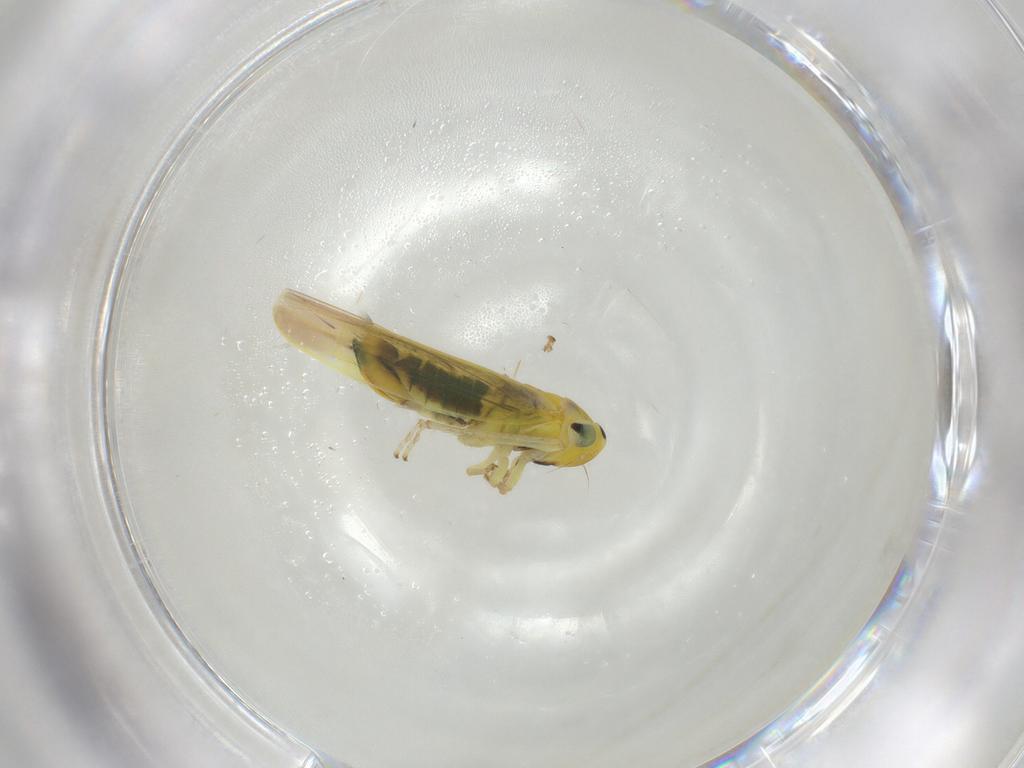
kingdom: Animalia
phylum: Arthropoda
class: Insecta
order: Hemiptera
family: Cicadellidae
